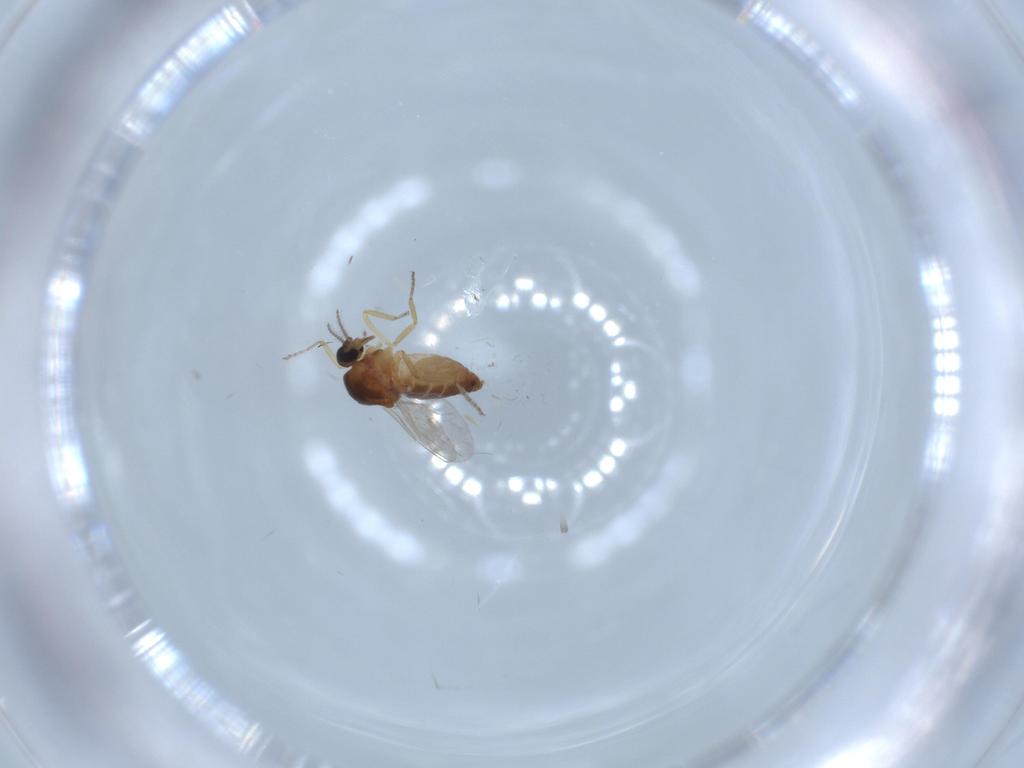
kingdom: Animalia
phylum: Arthropoda
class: Insecta
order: Diptera
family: Ceratopogonidae
